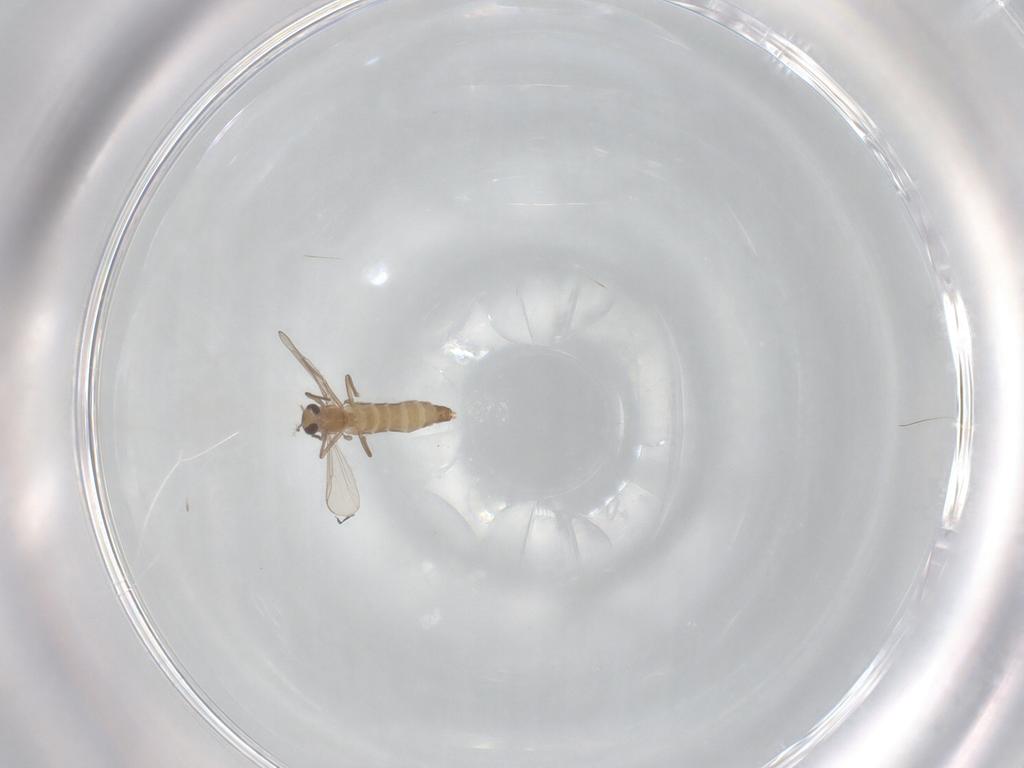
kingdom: Animalia
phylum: Arthropoda
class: Insecta
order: Diptera
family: Chironomidae
